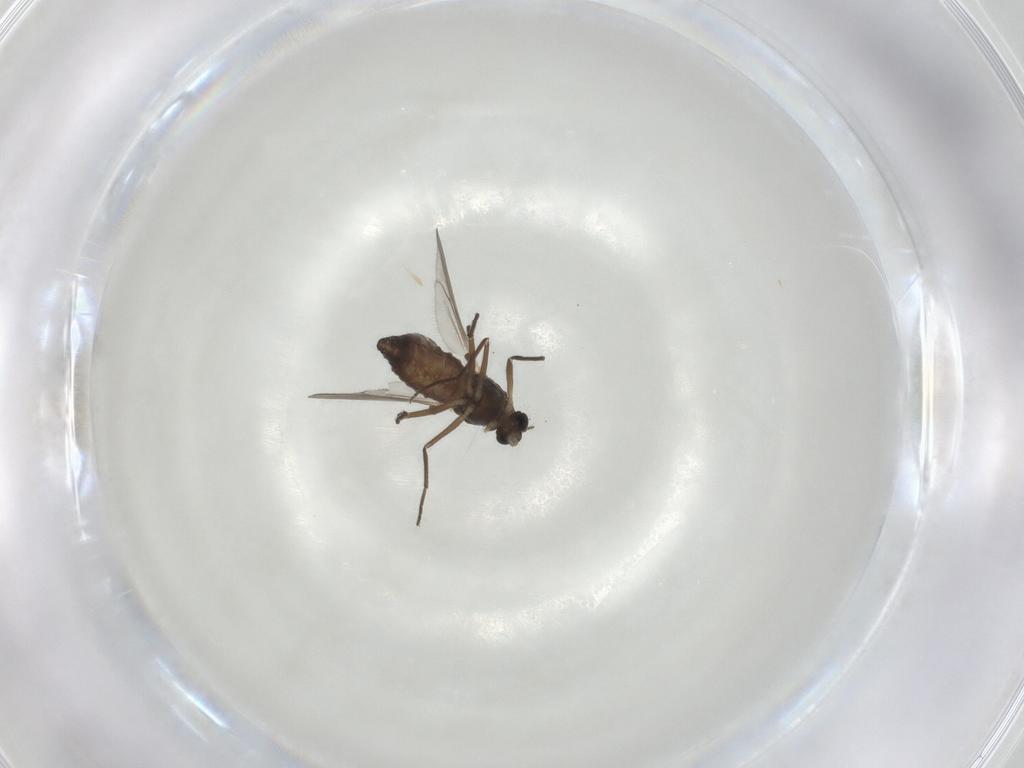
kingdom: Animalia
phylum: Arthropoda
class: Insecta
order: Diptera
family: Chironomidae
